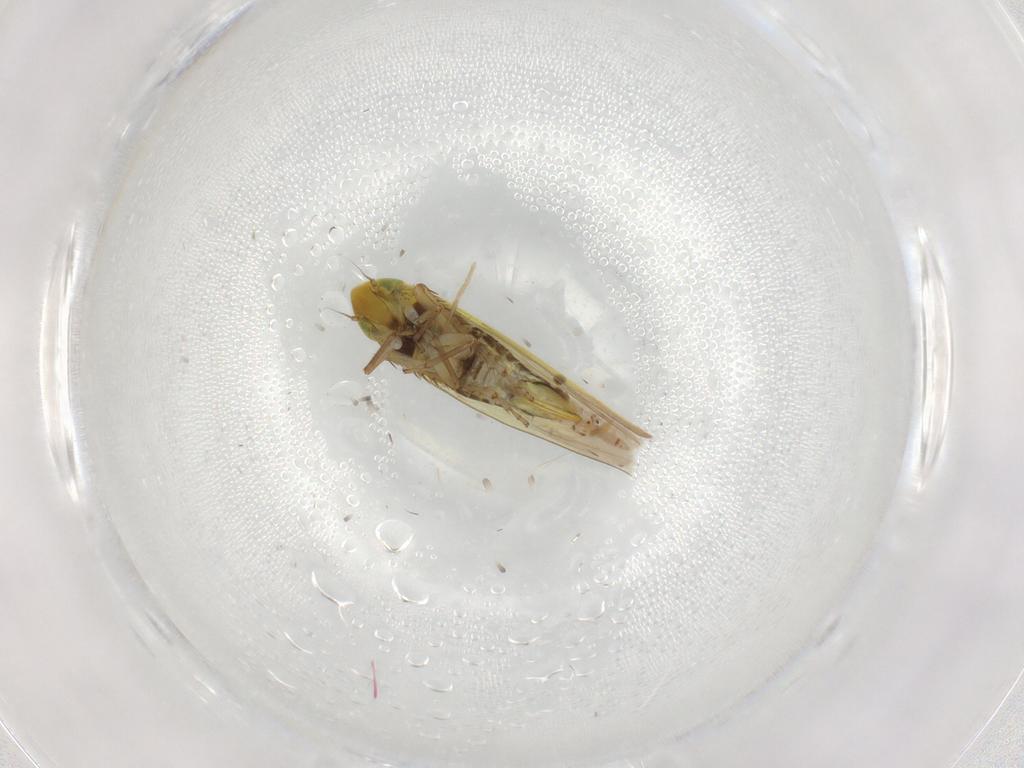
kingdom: Animalia
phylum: Arthropoda
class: Insecta
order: Hemiptera
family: Cicadellidae
